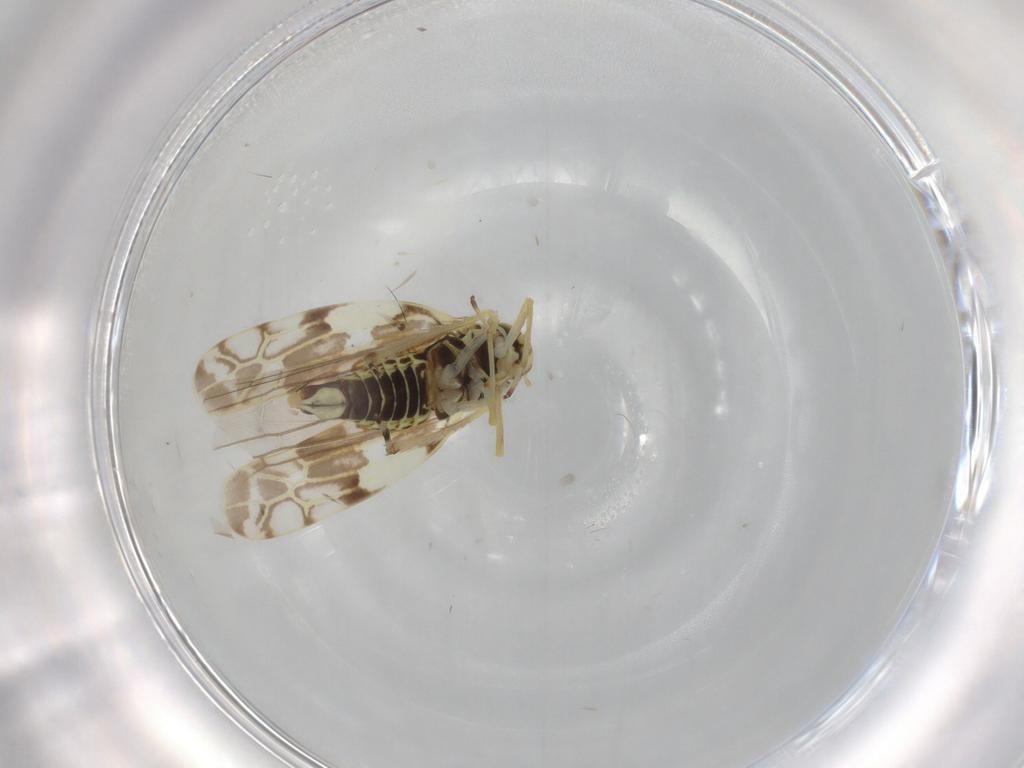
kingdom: Animalia
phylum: Arthropoda
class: Insecta
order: Hemiptera
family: Cicadellidae
